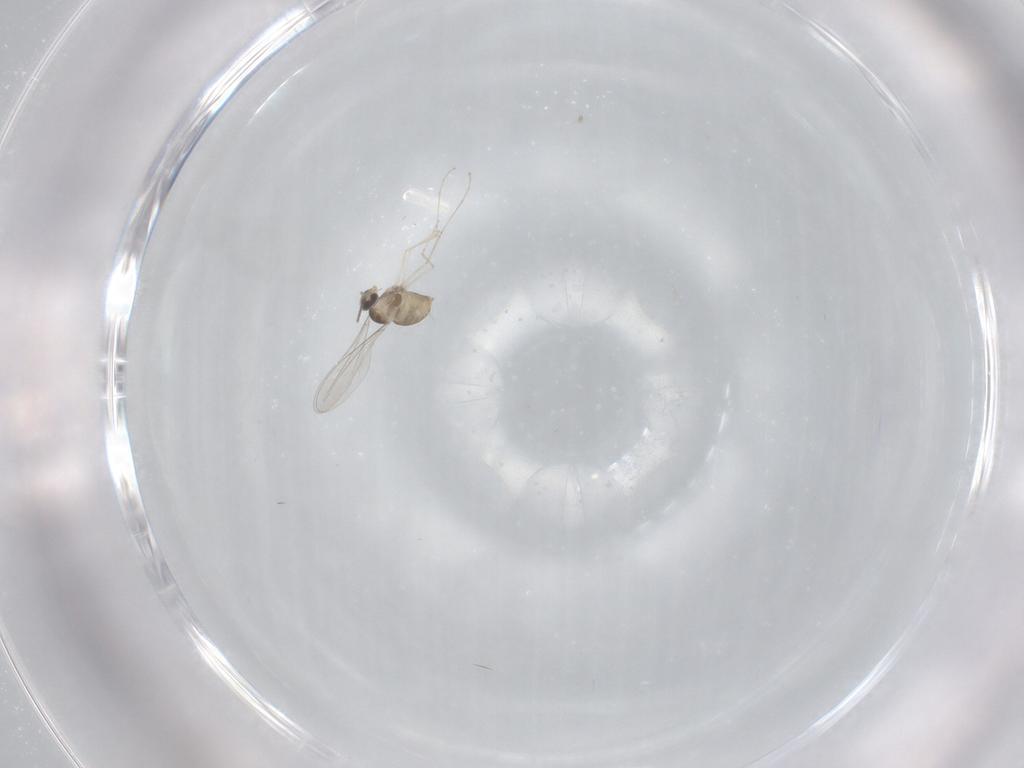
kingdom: Animalia
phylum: Arthropoda
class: Insecta
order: Diptera
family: Cecidomyiidae
